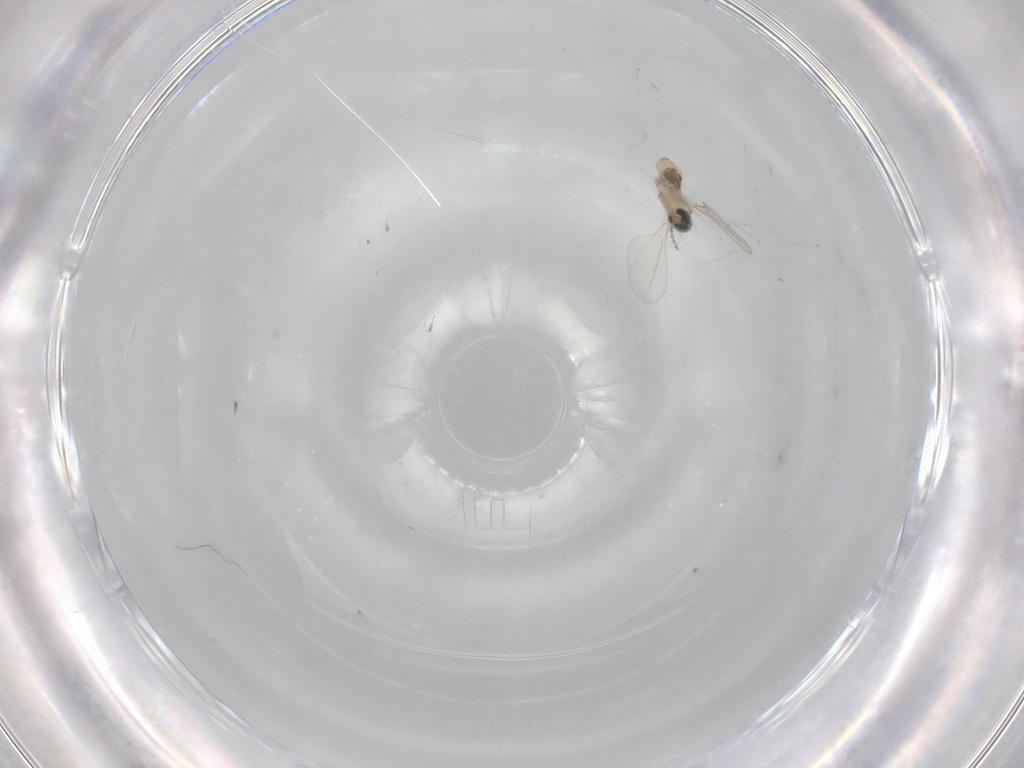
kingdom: Animalia
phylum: Arthropoda
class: Insecta
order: Diptera
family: Cecidomyiidae
